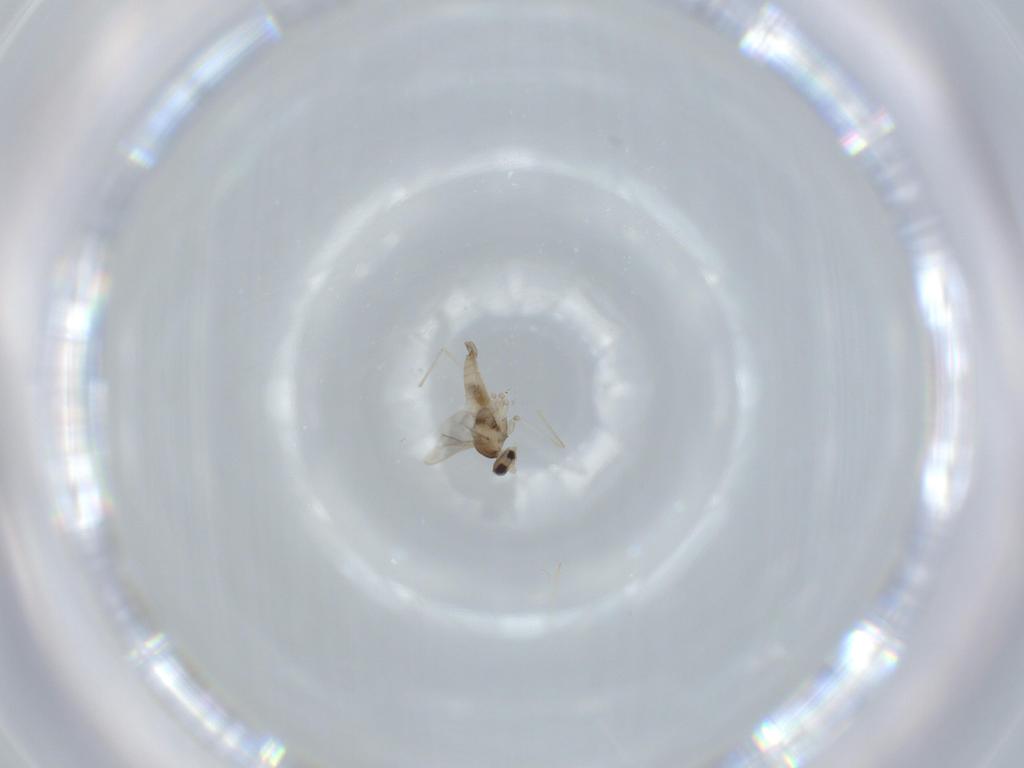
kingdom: Animalia
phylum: Arthropoda
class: Insecta
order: Diptera
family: Cecidomyiidae
